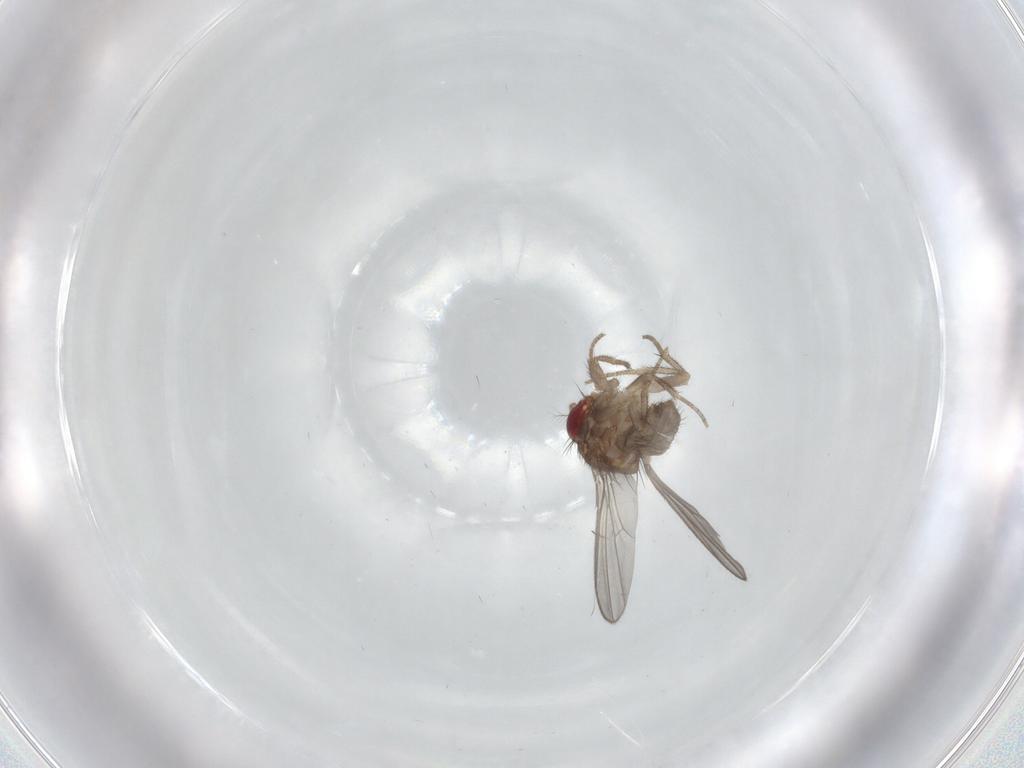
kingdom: Animalia
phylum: Arthropoda
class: Insecta
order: Diptera
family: Drosophilidae
